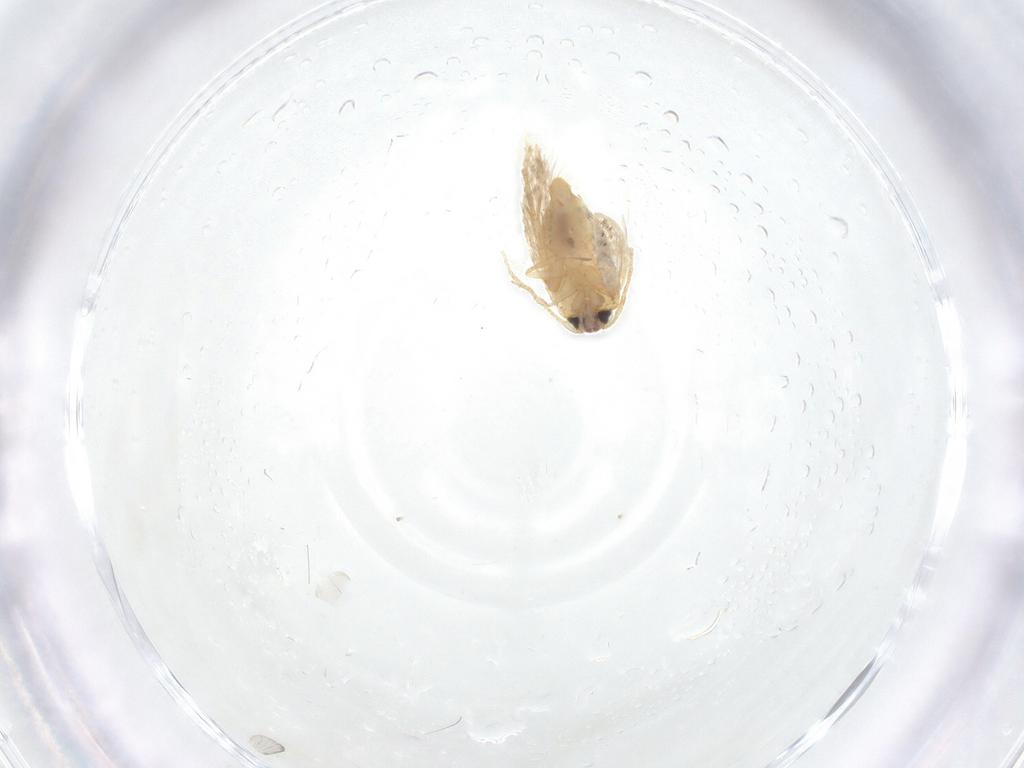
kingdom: Animalia
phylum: Arthropoda
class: Insecta
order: Lepidoptera
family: Nepticulidae
